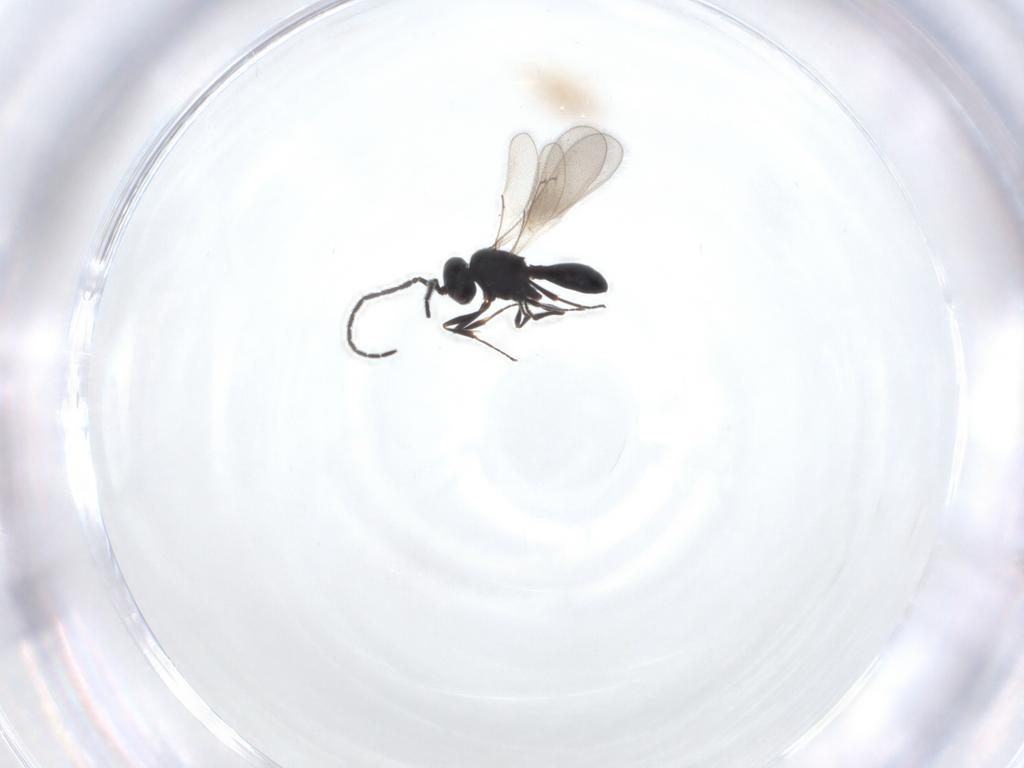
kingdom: Animalia
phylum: Arthropoda
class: Insecta
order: Hymenoptera
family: Scelionidae
